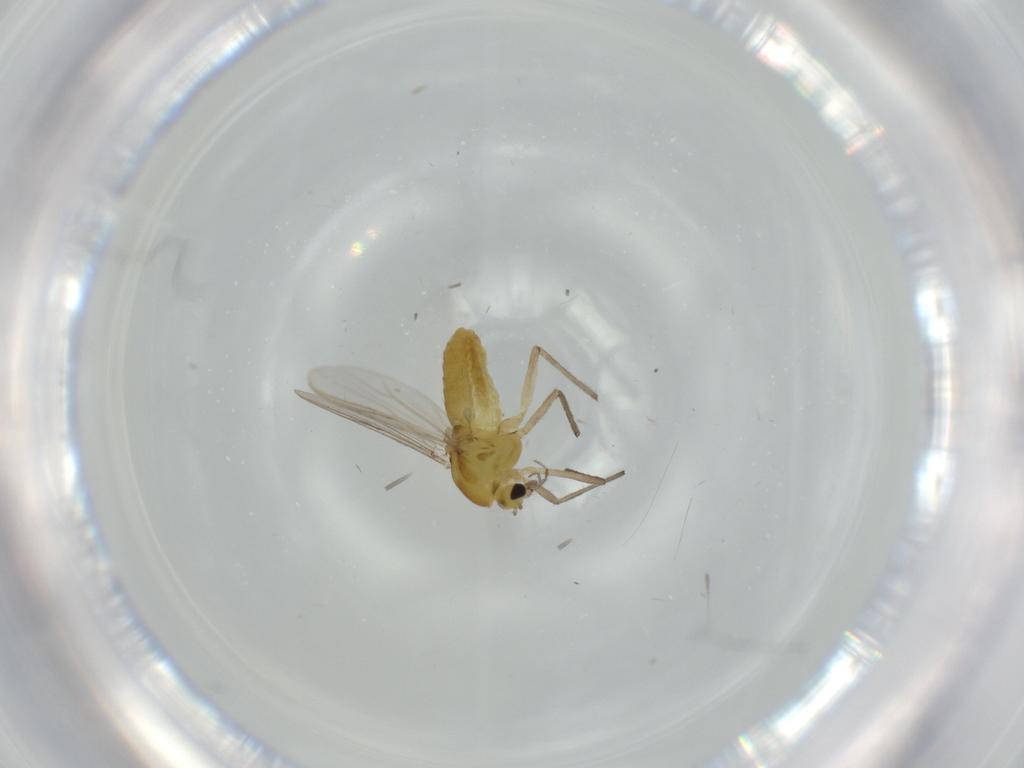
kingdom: Animalia
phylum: Arthropoda
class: Insecta
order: Diptera
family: Chironomidae
